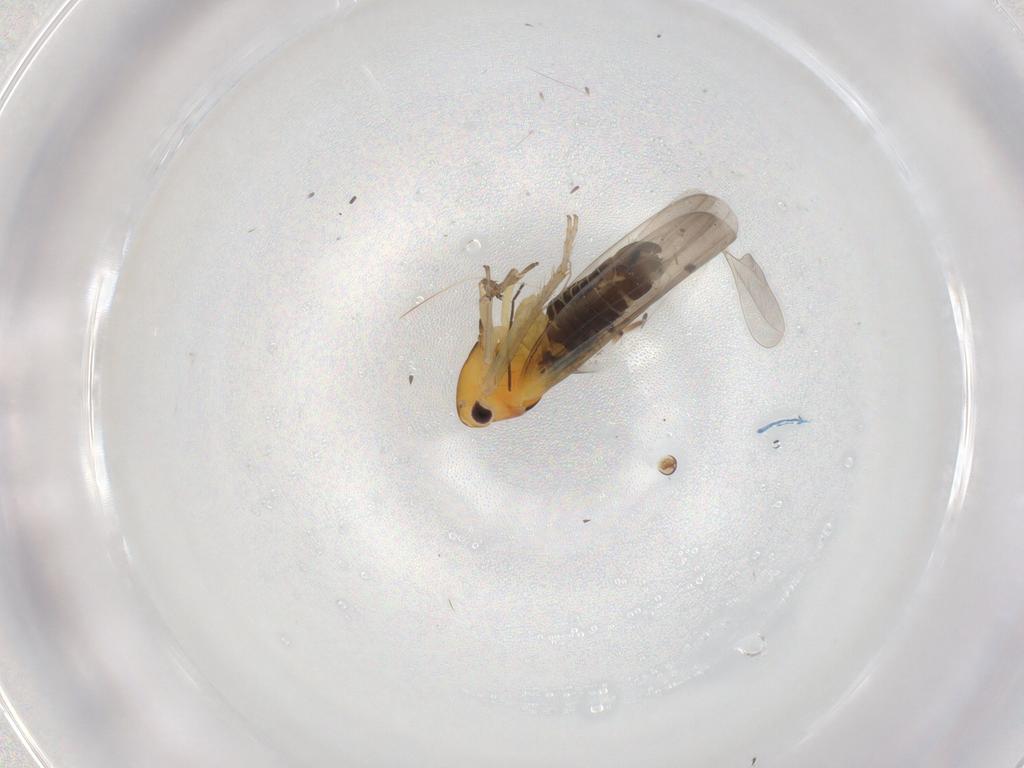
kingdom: Animalia
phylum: Arthropoda
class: Insecta
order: Hemiptera
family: Cicadellidae
